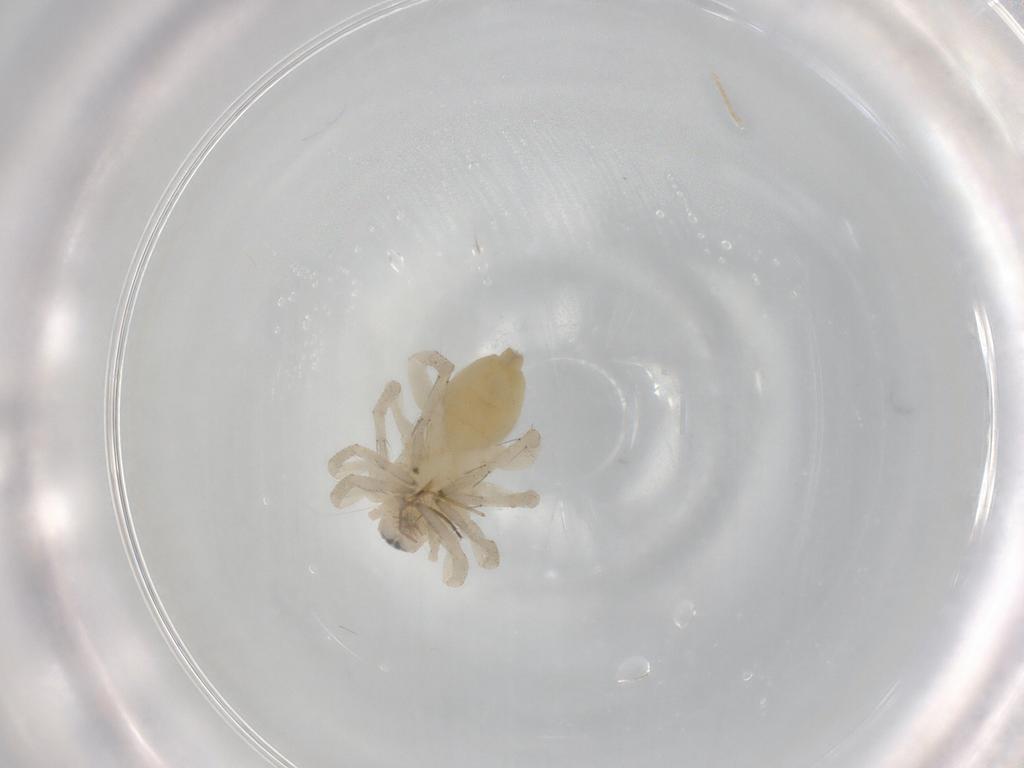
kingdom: Animalia
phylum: Arthropoda
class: Arachnida
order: Araneae
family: Clubionidae
